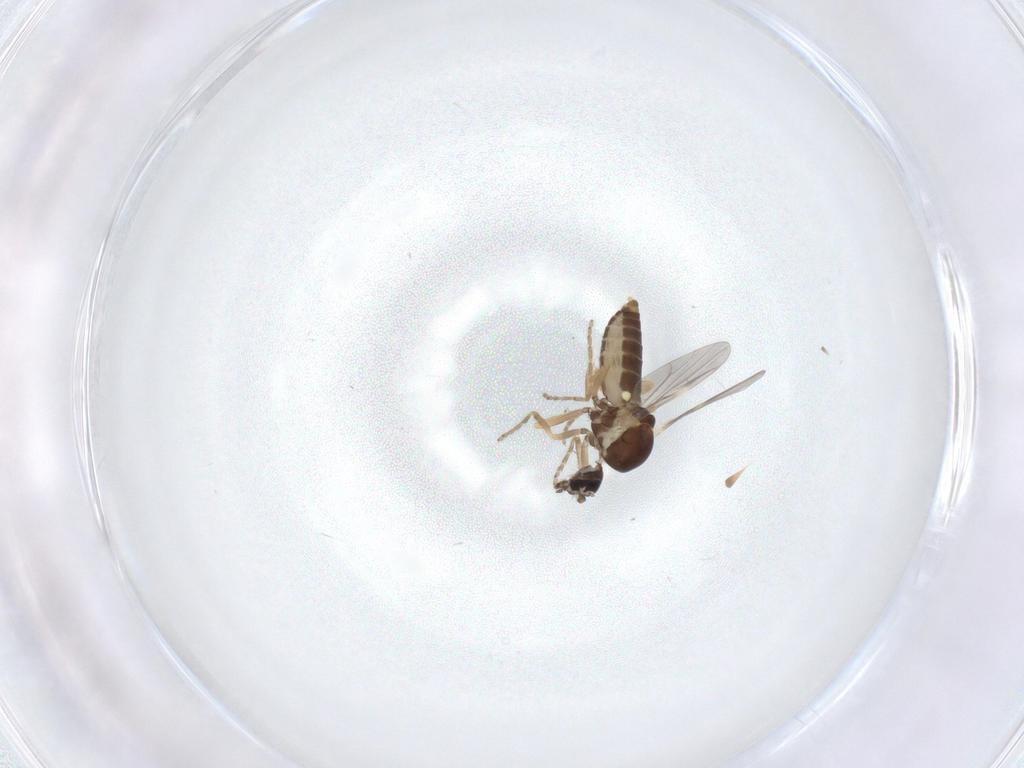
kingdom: Animalia
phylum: Arthropoda
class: Insecta
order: Diptera
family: Ceratopogonidae
